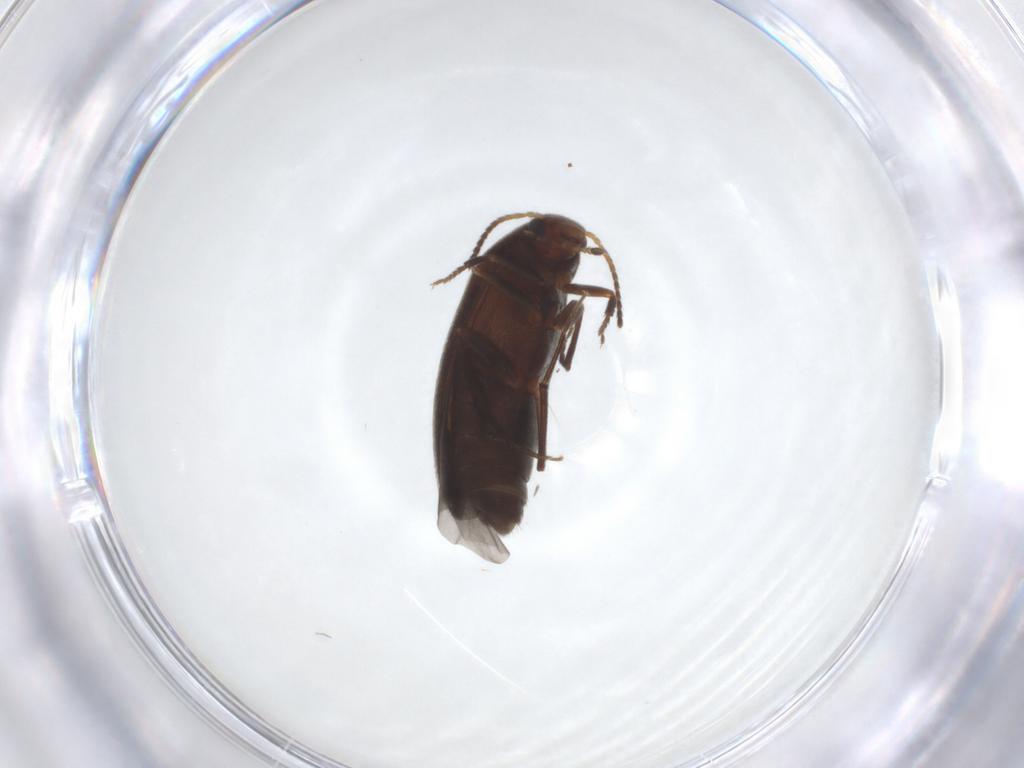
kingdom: Animalia
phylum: Arthropoda
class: Insecta
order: Coleoptera
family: Melandryidae
